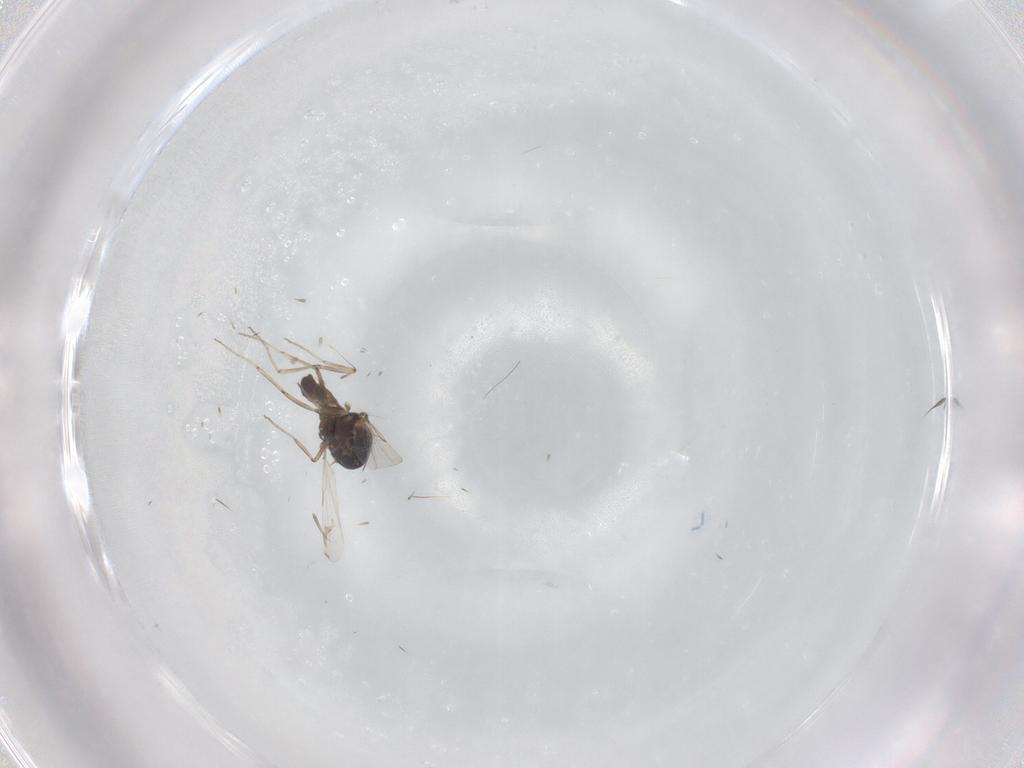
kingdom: Animalia
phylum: Arthropoda
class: Insecta
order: Diptera
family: Ceratopogonidae
